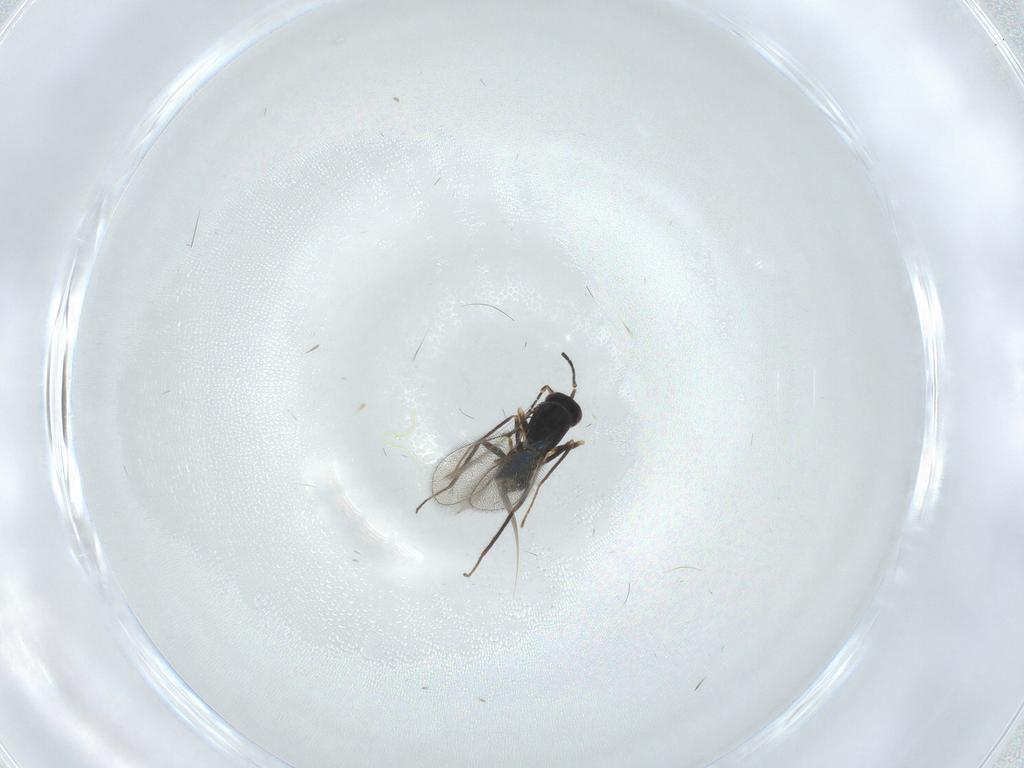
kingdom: Animalia
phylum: Arthropoda
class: Insecta
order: Hymenoptera
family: Mymaridae
